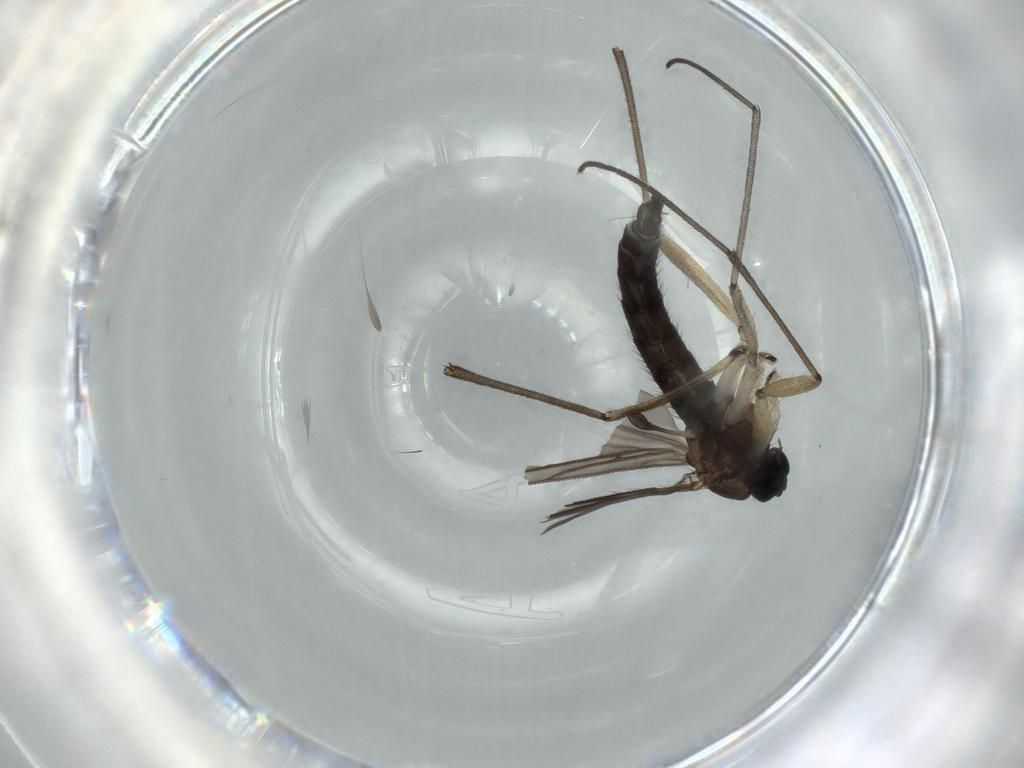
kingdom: Animalia
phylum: Arthropoda
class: Insecta
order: Diptera
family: Sciaridae
